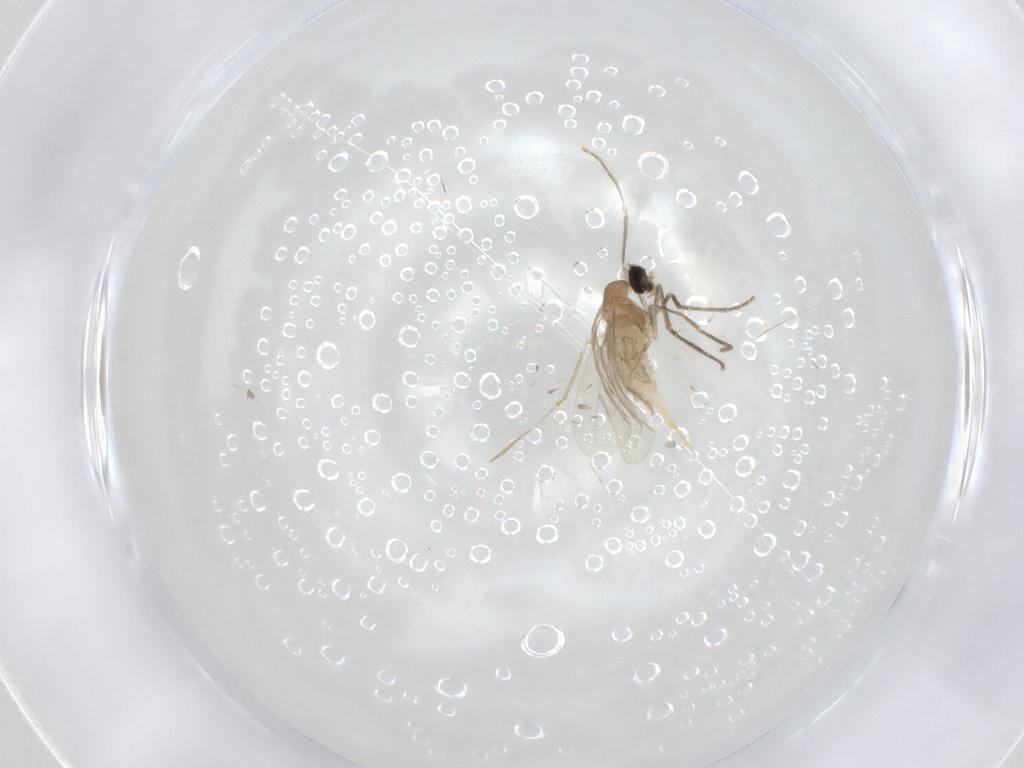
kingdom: Animalia
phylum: Arthropoda
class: Insecta
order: Diptera
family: Cecidomyiidae
